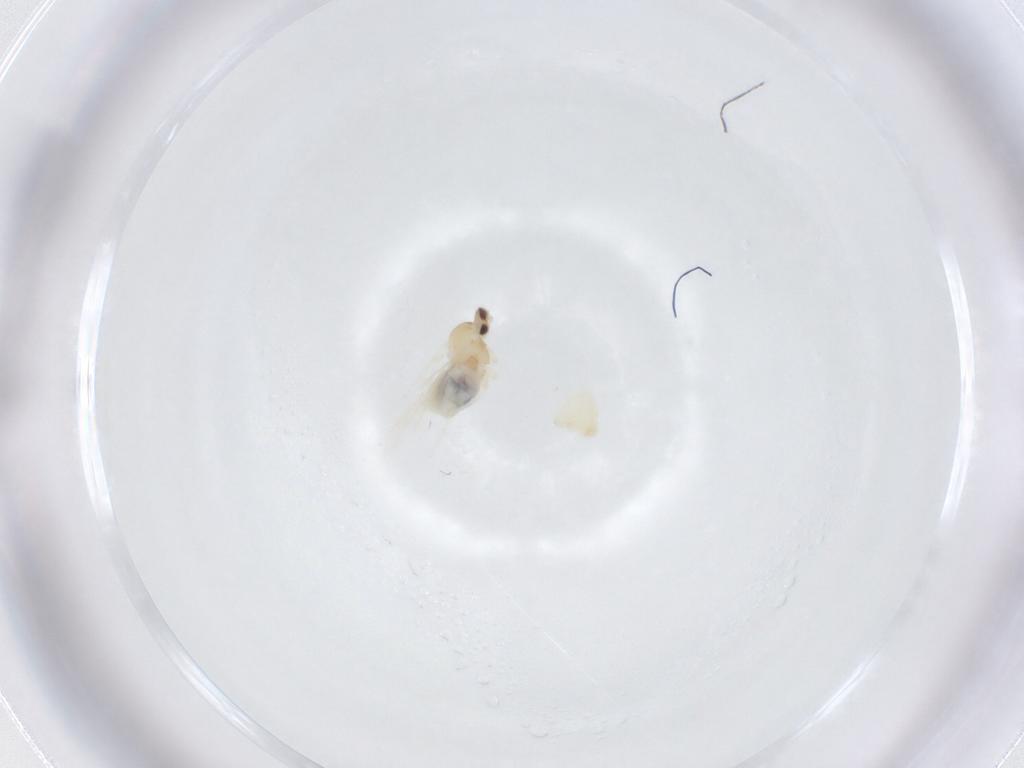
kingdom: Animalia
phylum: Arthropoda
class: Insecta
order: Diptera
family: Cecidomyiidae
